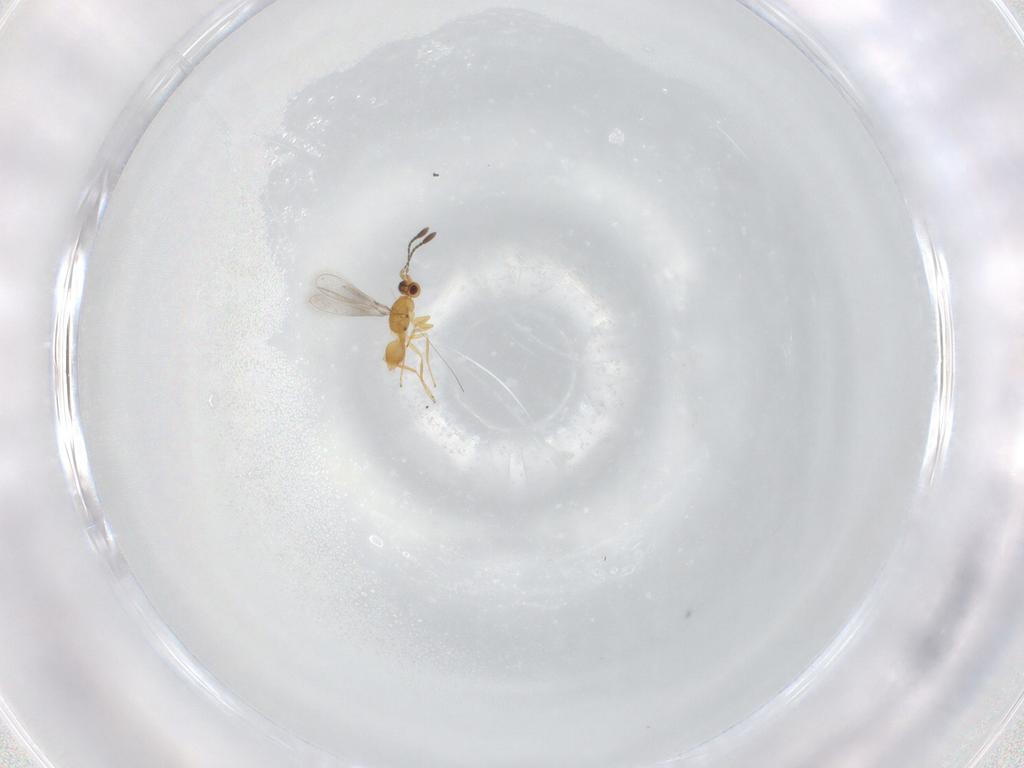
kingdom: Animalia
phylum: Arthropoda
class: Insecta
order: Hymenoptera
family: Mymaridae
